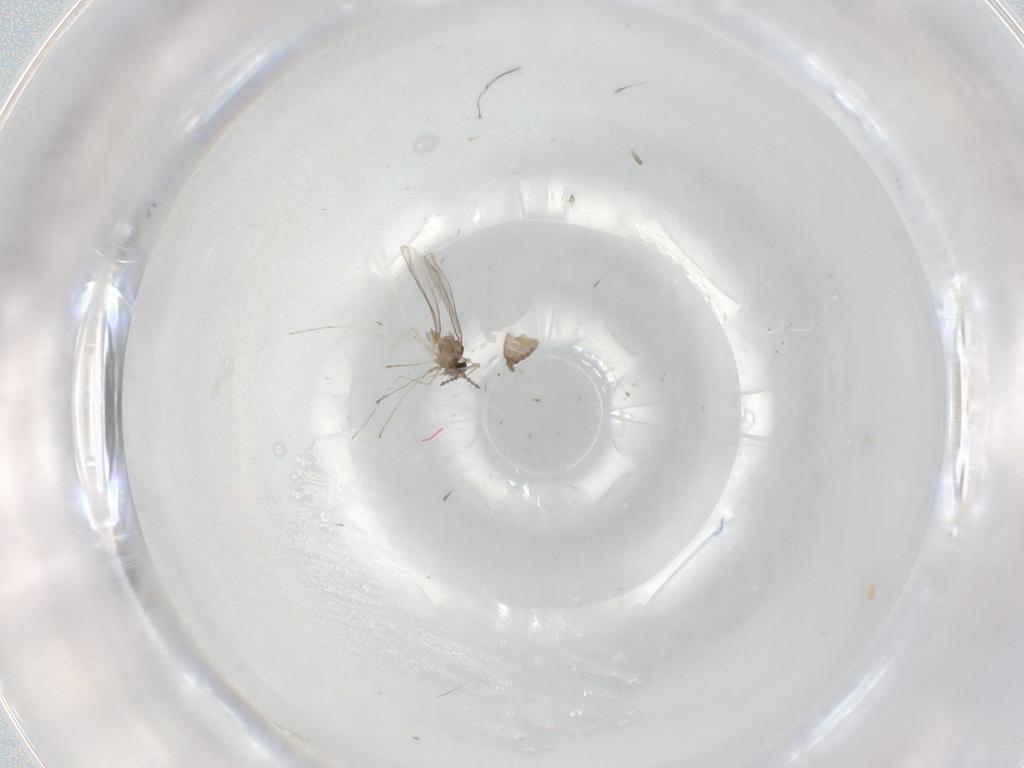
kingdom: Animalia
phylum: Arthropoda
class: Insecta
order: Diptera
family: Cecidomyiidae
